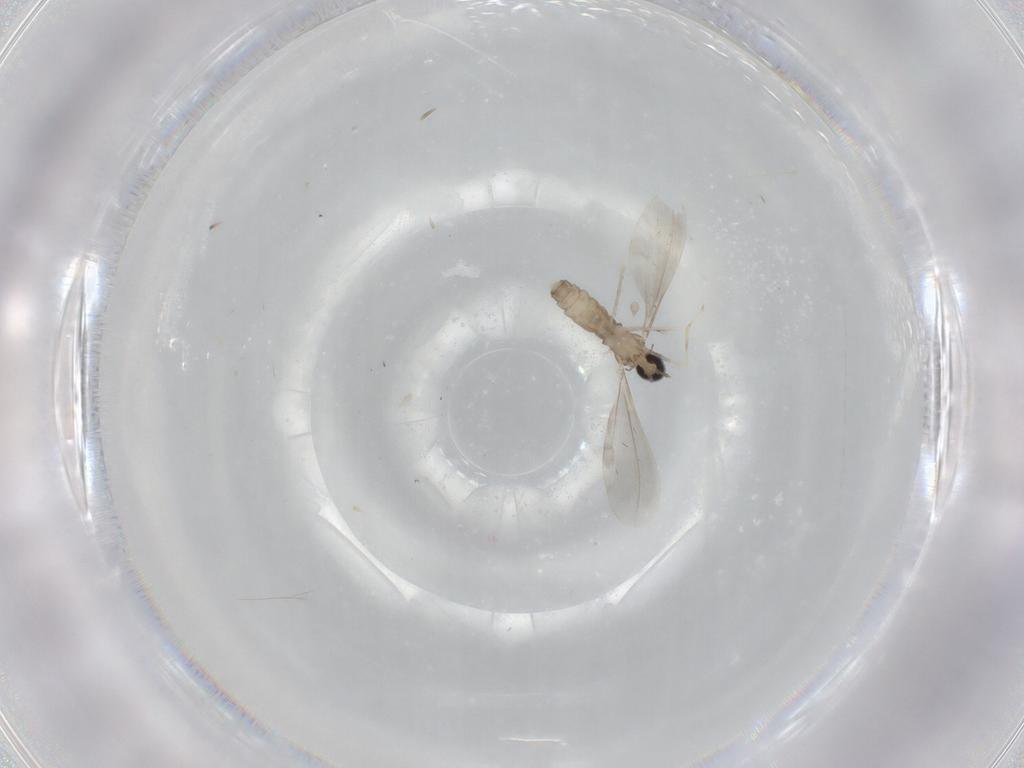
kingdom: Animalia
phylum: Arthropoda
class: Insecta
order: Diptera
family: Cecidomyiidae
